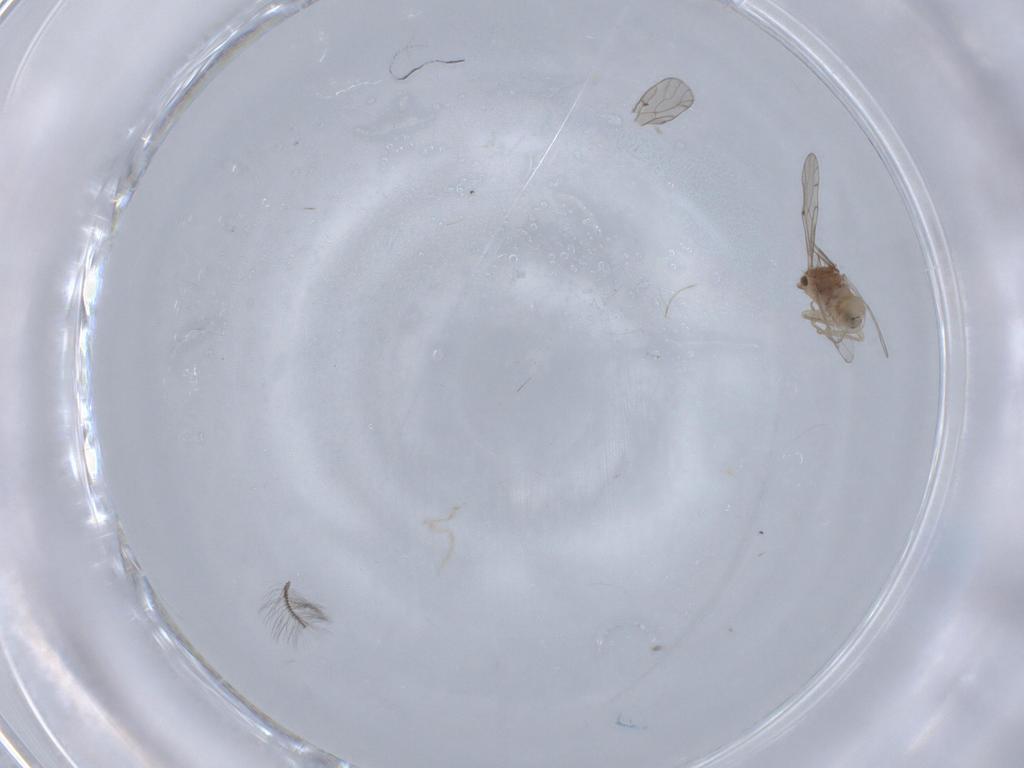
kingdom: Animalia
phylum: Arthropoda
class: Insecta
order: Psocodea
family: Ectopsocidae
